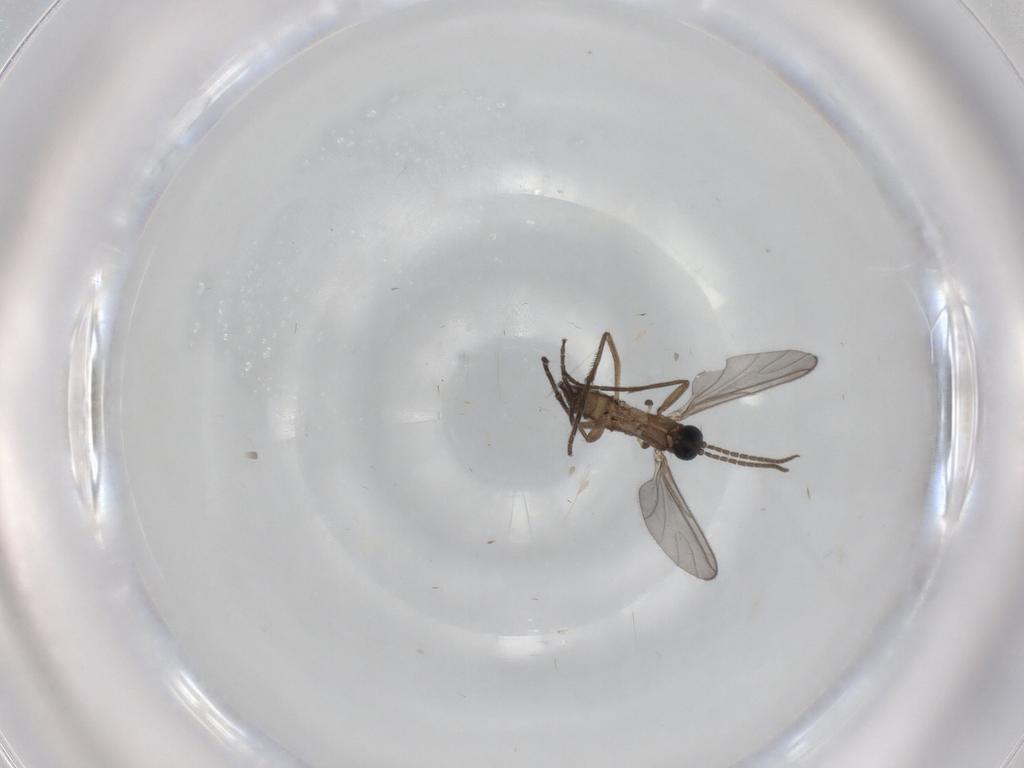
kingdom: Animalia
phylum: Arthropoda
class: Insecta
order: Diptera
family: Sciaridae
